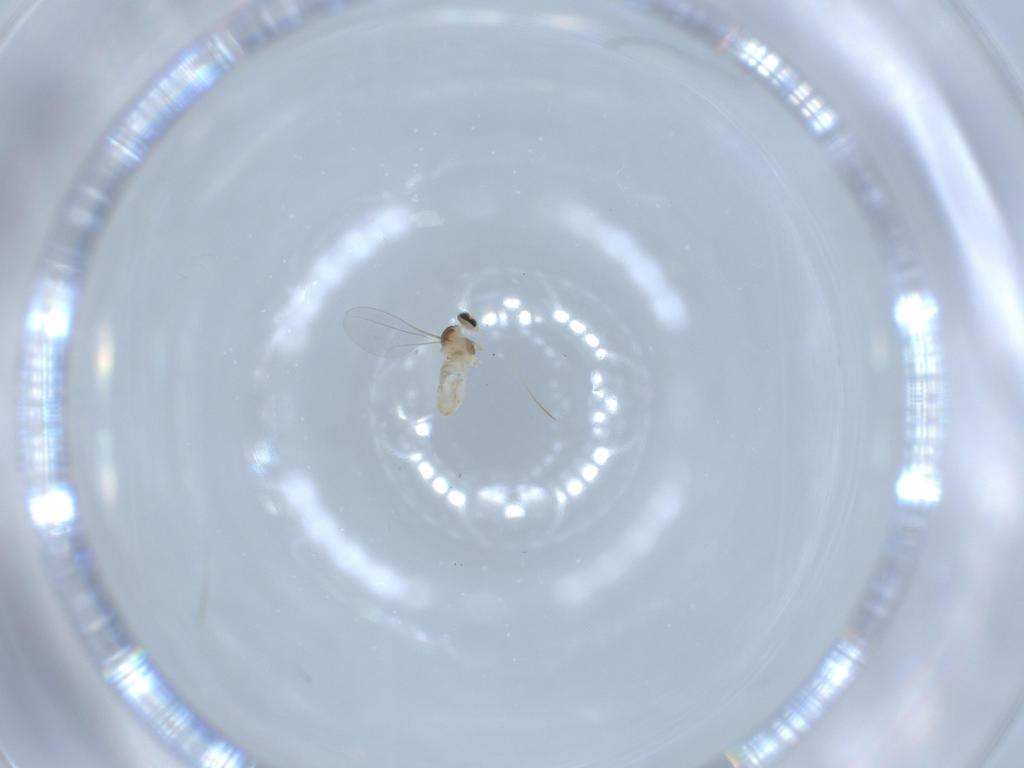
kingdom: Animalia
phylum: Arthropoda
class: Insecta
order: Diptera
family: Cecidomyiidae
